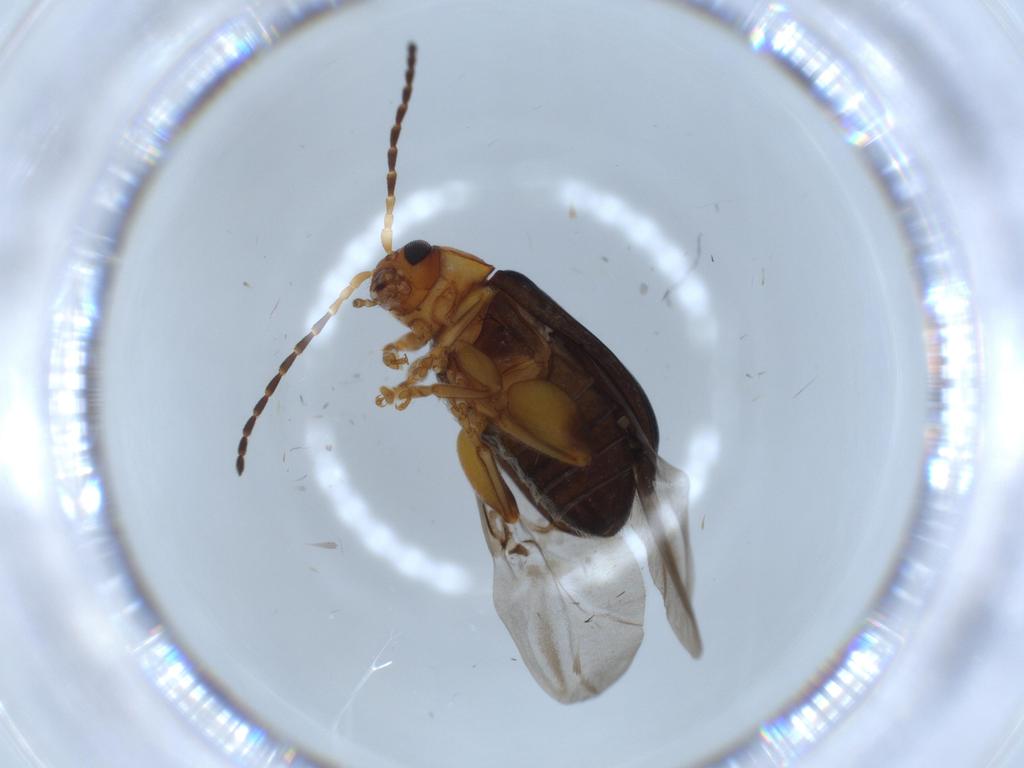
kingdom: Animalia
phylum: Arthropoda
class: Insecta
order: Coleoptera
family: Chrysomelidae
